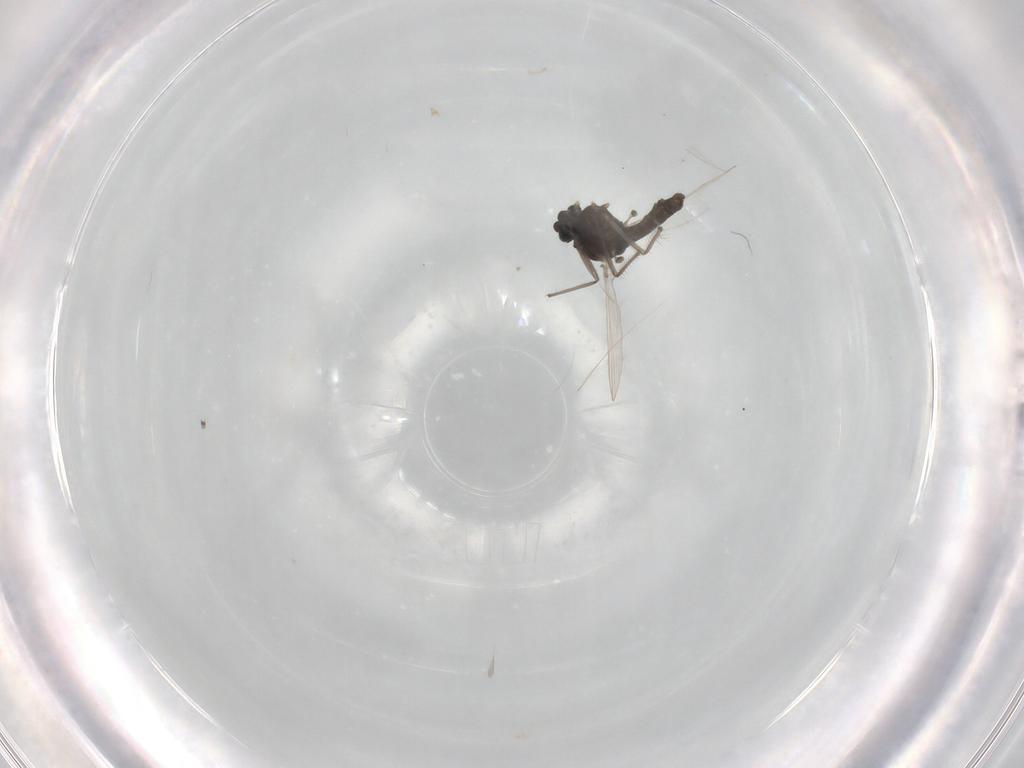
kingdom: Animalia
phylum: Arthropoda
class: Insecta
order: Diptera
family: Chironomidae
